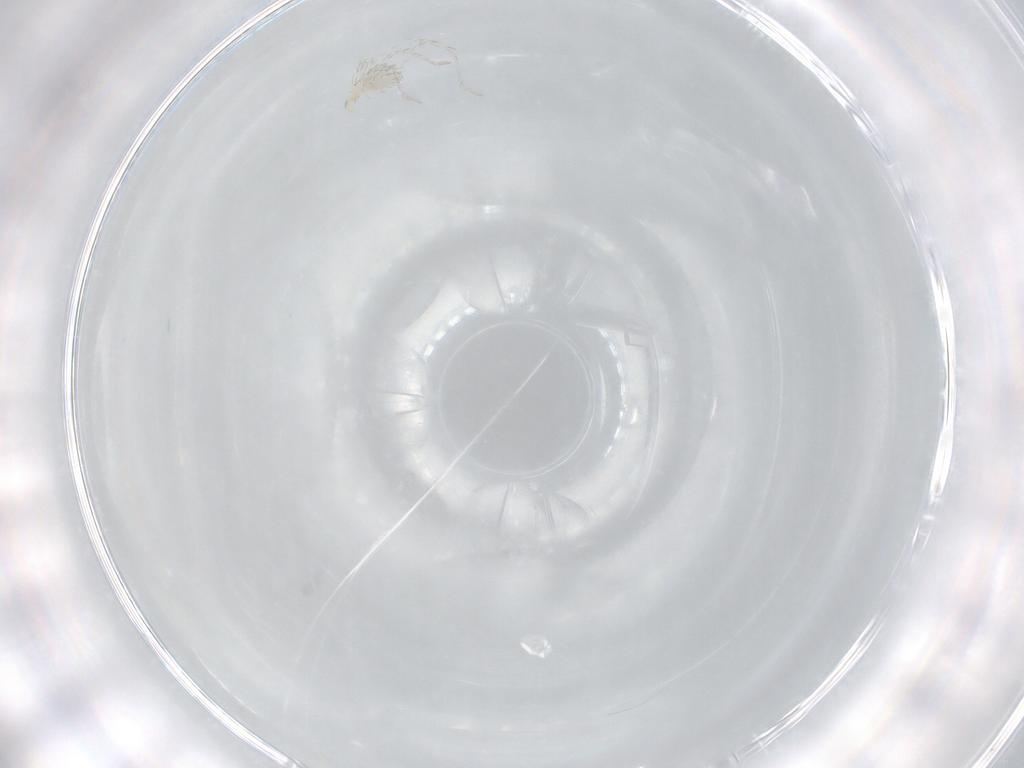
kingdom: Animalia
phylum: Arthropoda
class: Arachnida
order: Trombidiformes
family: Smarididae
